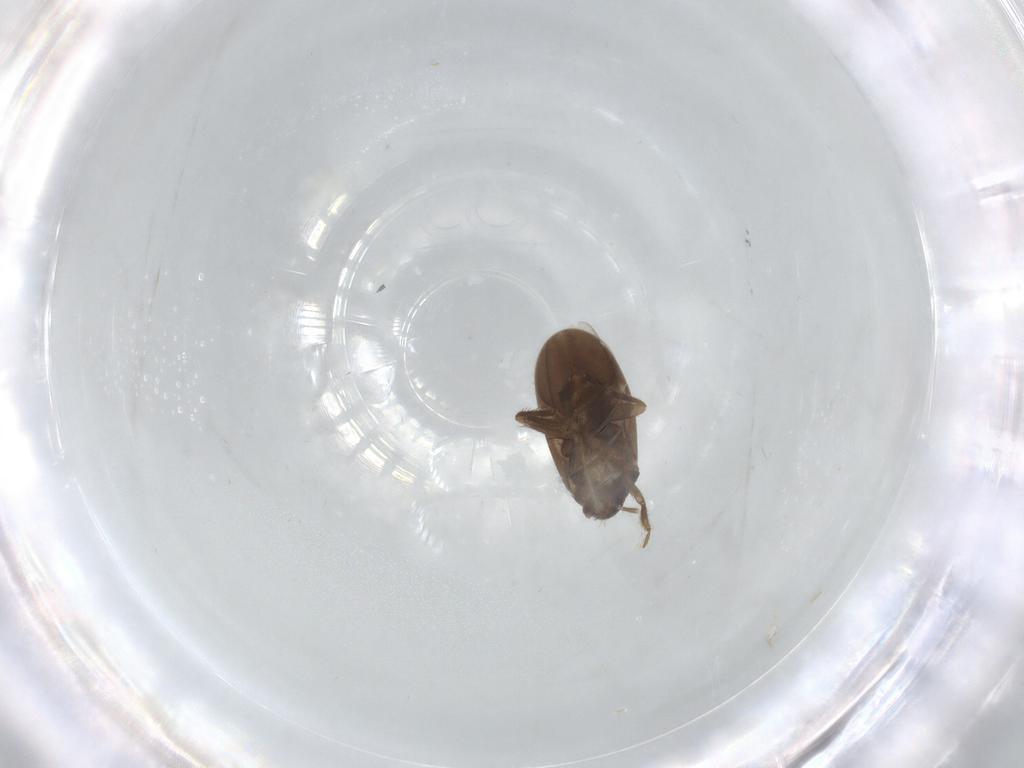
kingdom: Animalia
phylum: Arthropoda
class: Insecta
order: Hemiptera
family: Ceratocombidae
